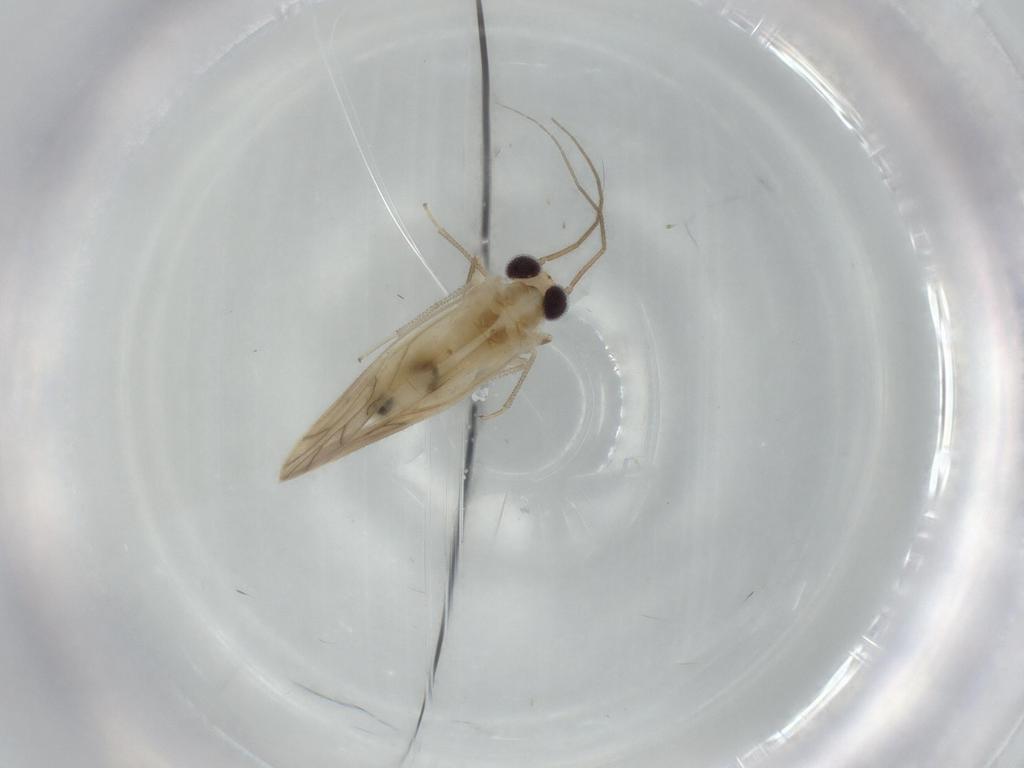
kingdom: Animalia
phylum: Arthropoda
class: Insecta
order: Psocodea
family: Caeciliusidae
